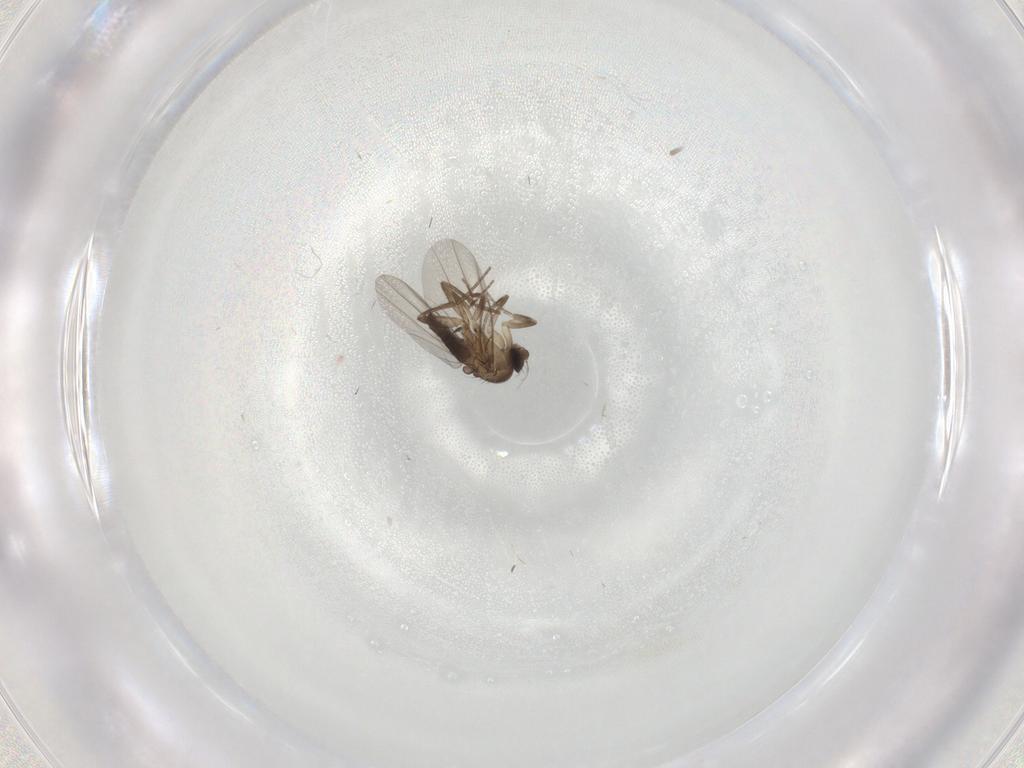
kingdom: Animalia
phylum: Arthropoda
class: Insecta
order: Diptera
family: Phoridae
